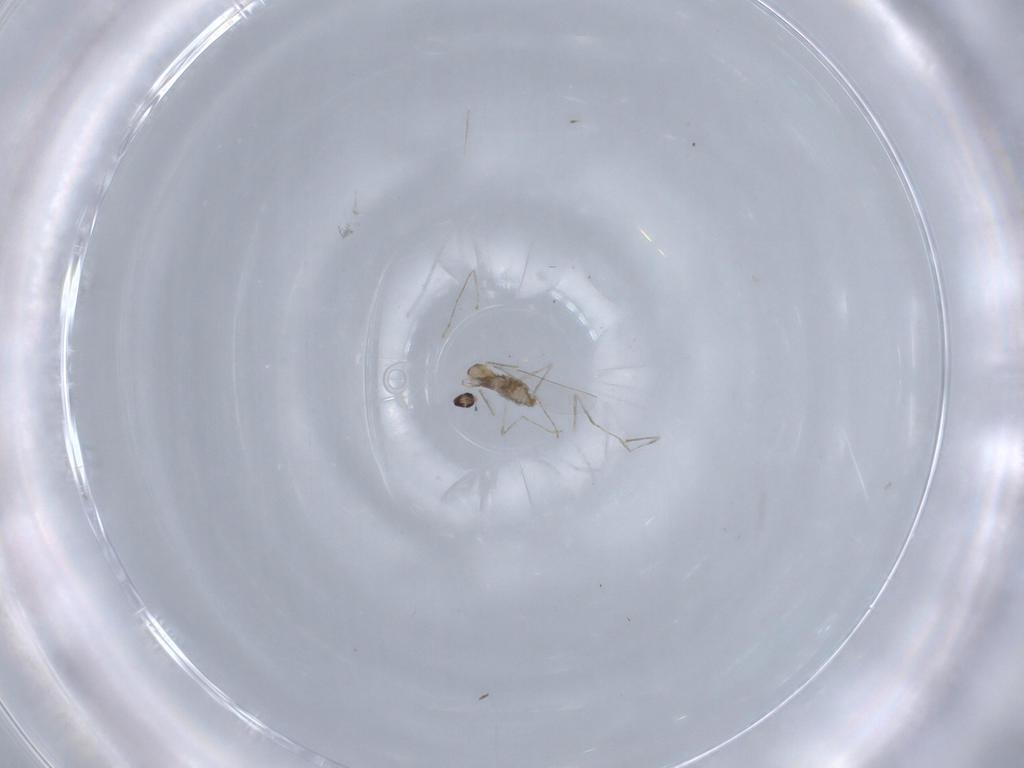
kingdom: Animalia
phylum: Arthropoda
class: Insecta
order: Diptera
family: Cecidomyiidae
